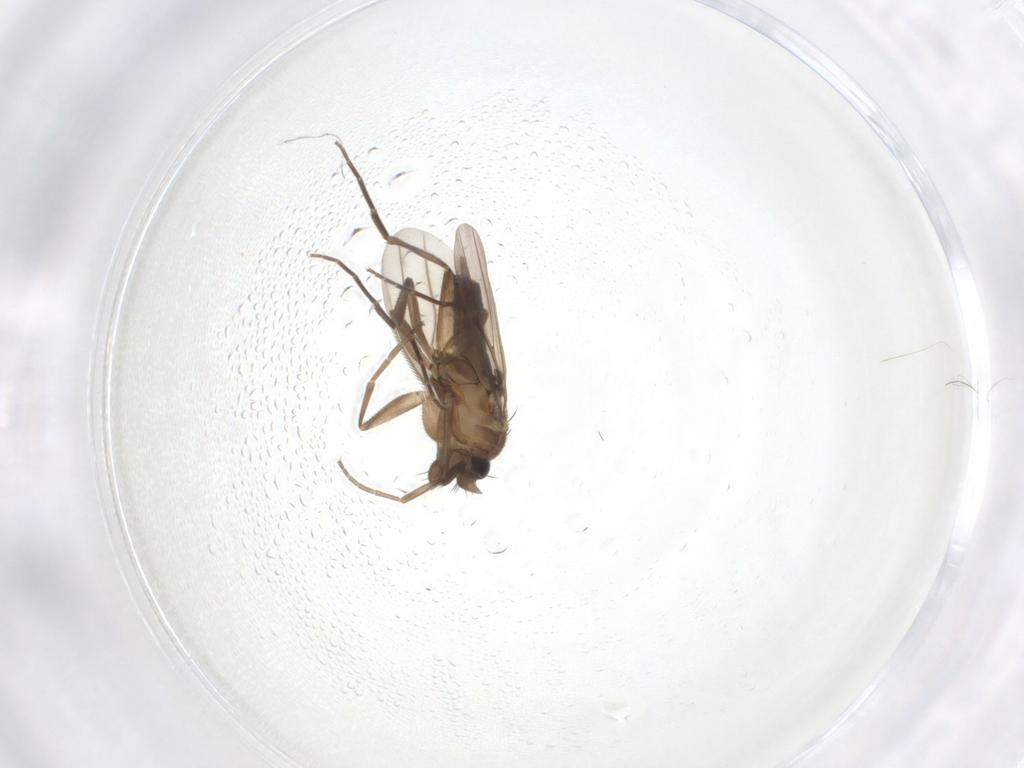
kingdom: Animalia
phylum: Arthropoda
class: Insecta
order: Diptera
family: Phoridae
